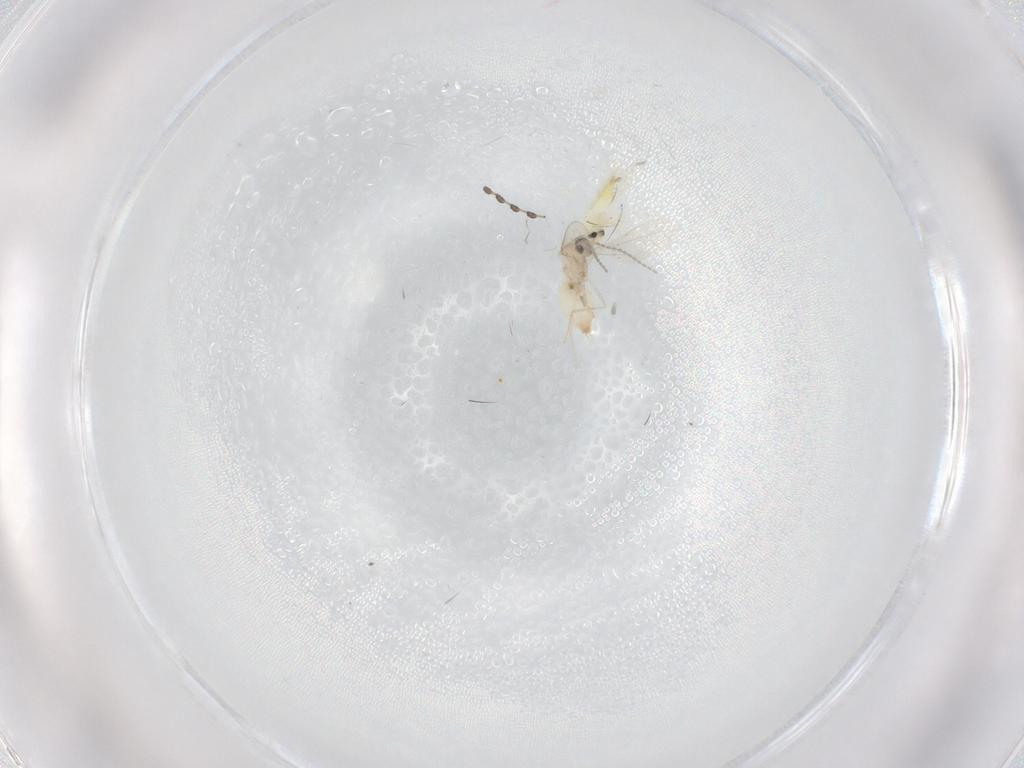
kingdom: Animalia
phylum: Arthropoda
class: Insecta
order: Diptera
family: Cecidomyiidae
